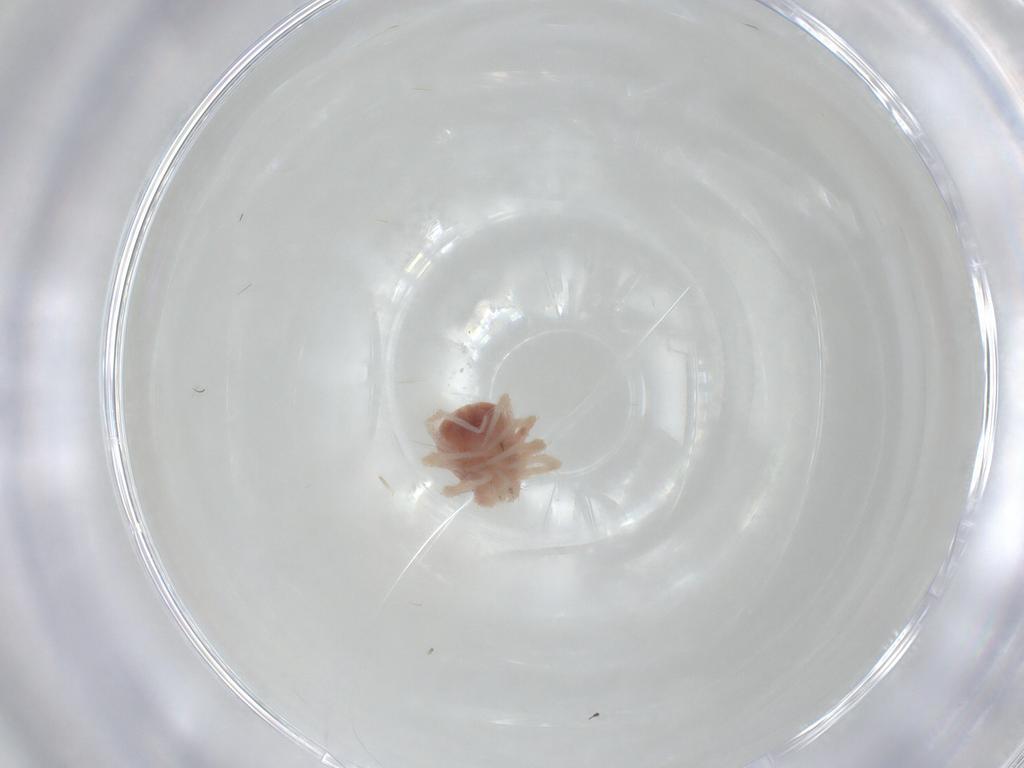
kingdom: Animalia
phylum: Arthropoda
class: Arachnida
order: Trombidiformes
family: Anystidae
